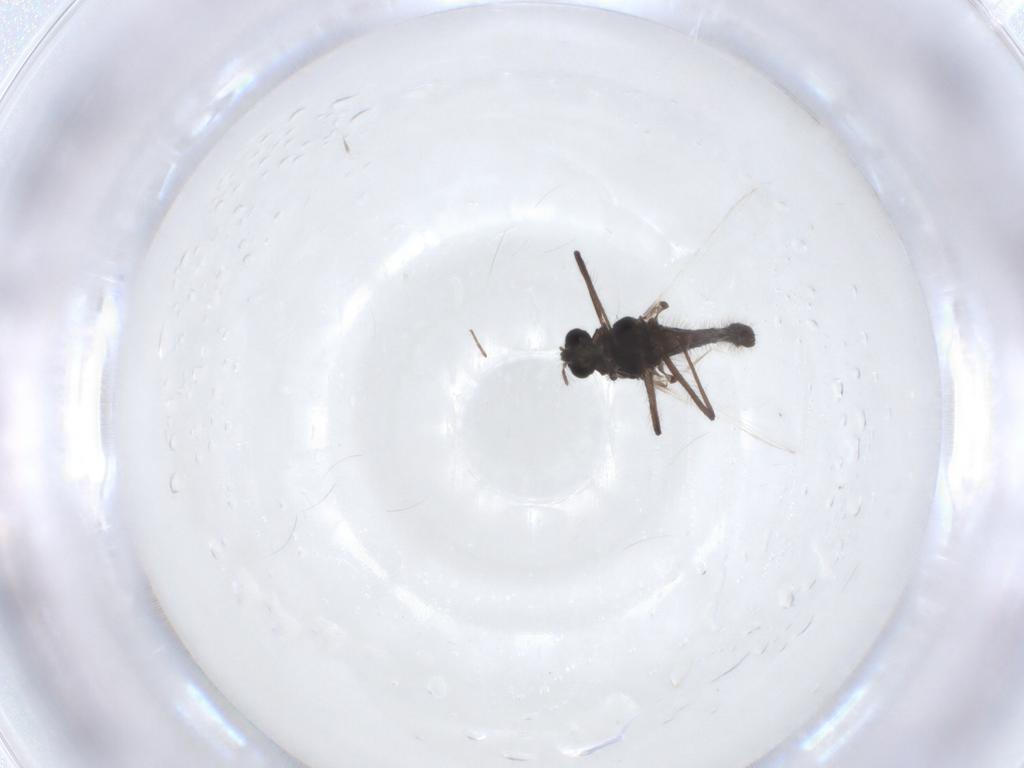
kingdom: Animalia
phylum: Arthropoda
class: Insecta
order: Diptera
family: Chironomidae
